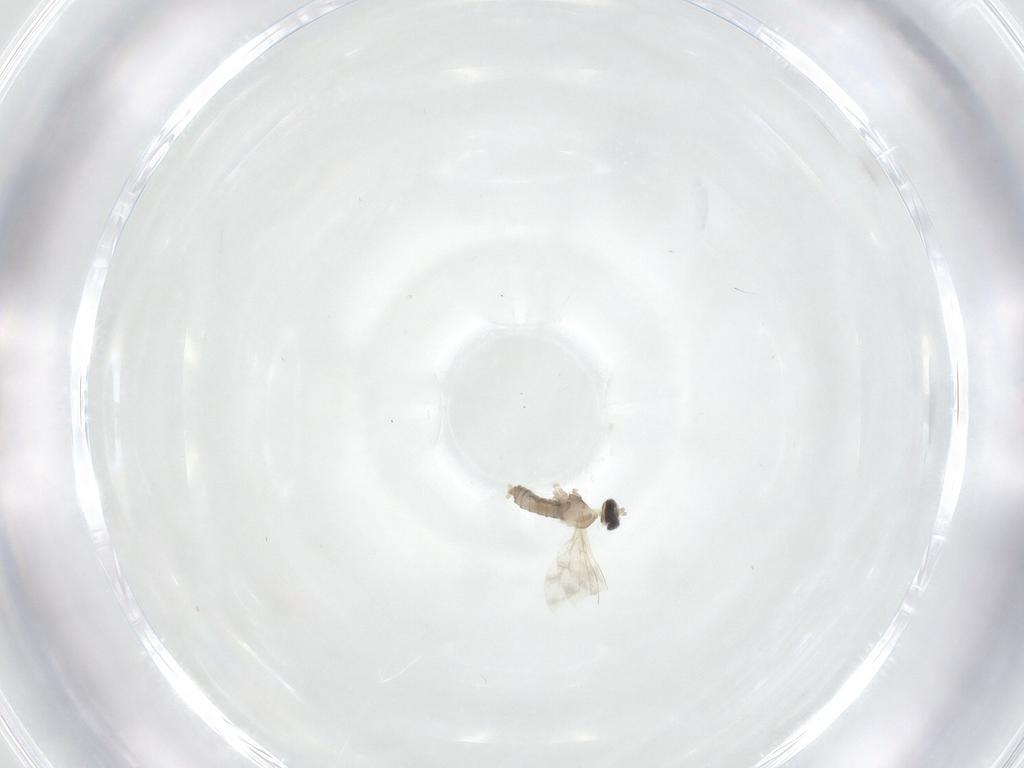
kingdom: Animalia
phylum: Arthropoda
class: Insecta
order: Diptera
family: Cecidomyiidae
